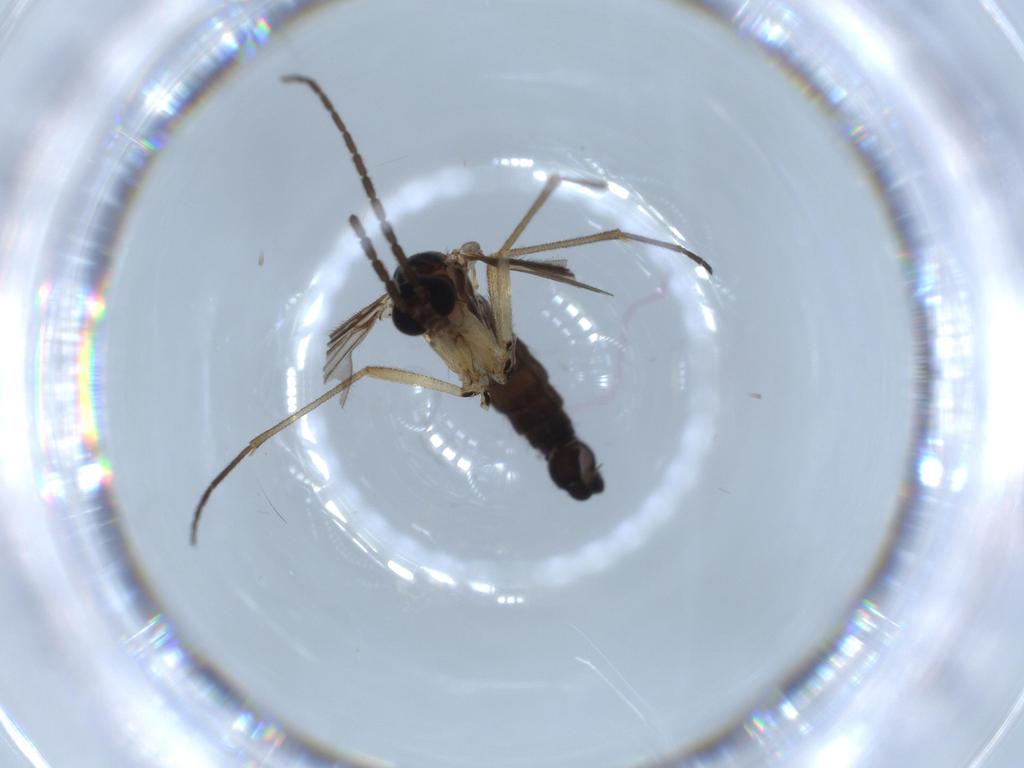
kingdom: Animalia
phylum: Arthropoda
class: Insecta
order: Diptera
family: Sciaridae
